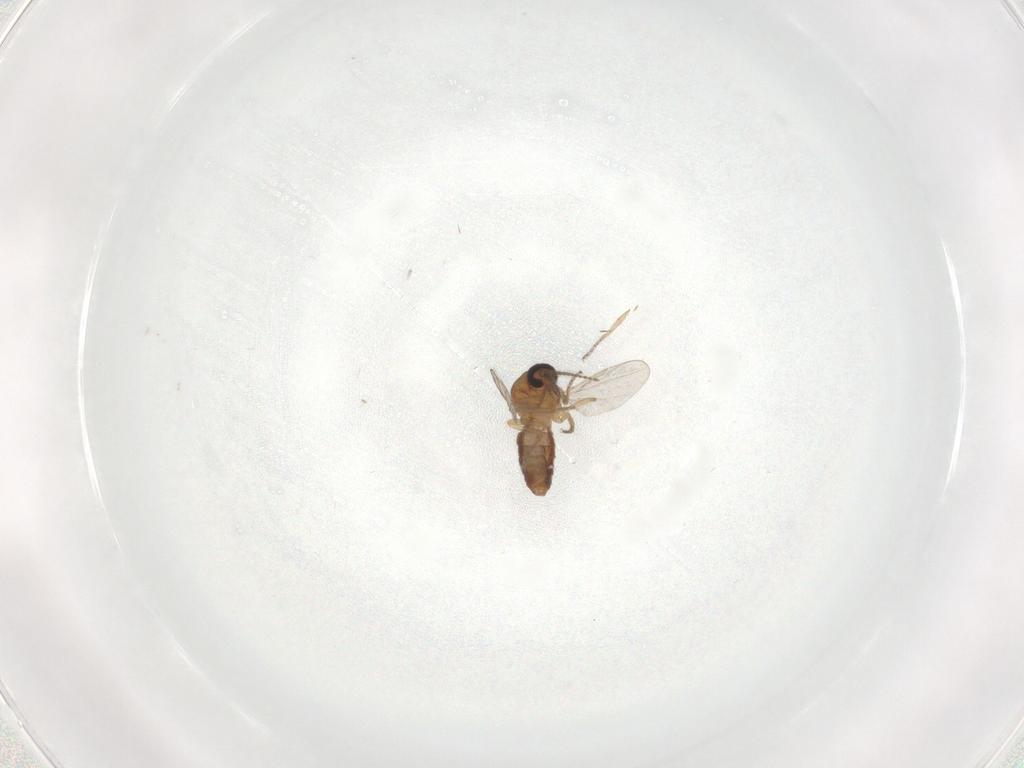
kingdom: Animalia
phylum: Arthropoda
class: Insecta
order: Diptera
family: Ceratopogonidae
